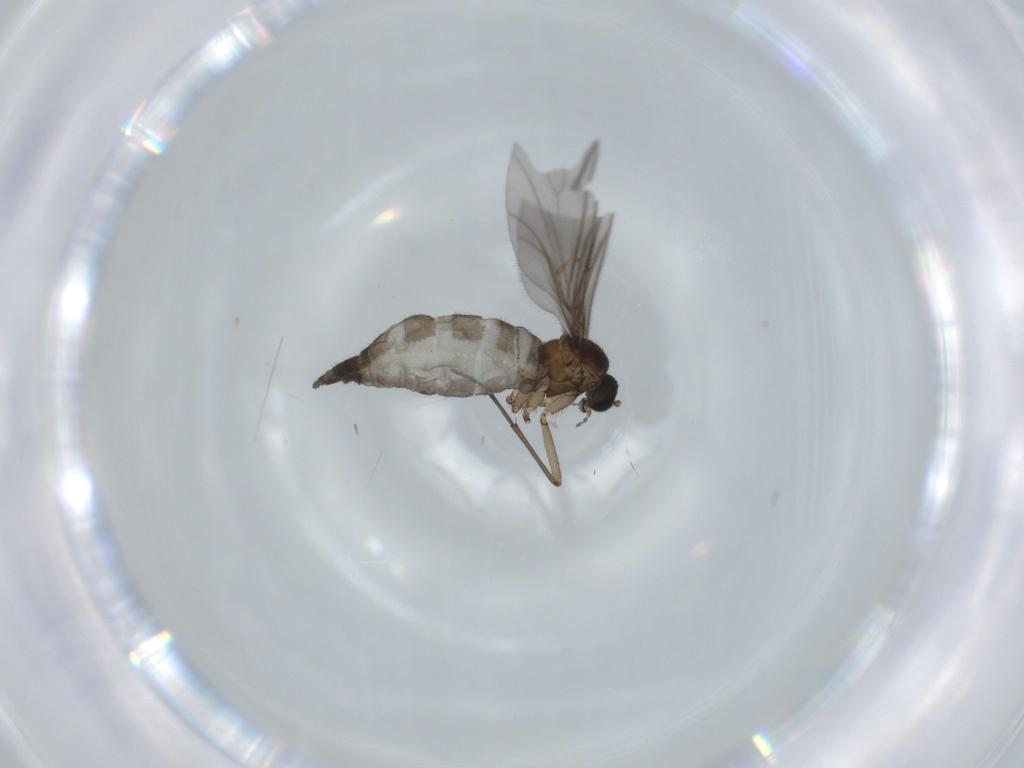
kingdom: Animalia
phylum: Arthropoda
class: Insecta
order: Diptera
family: Sciaridae
